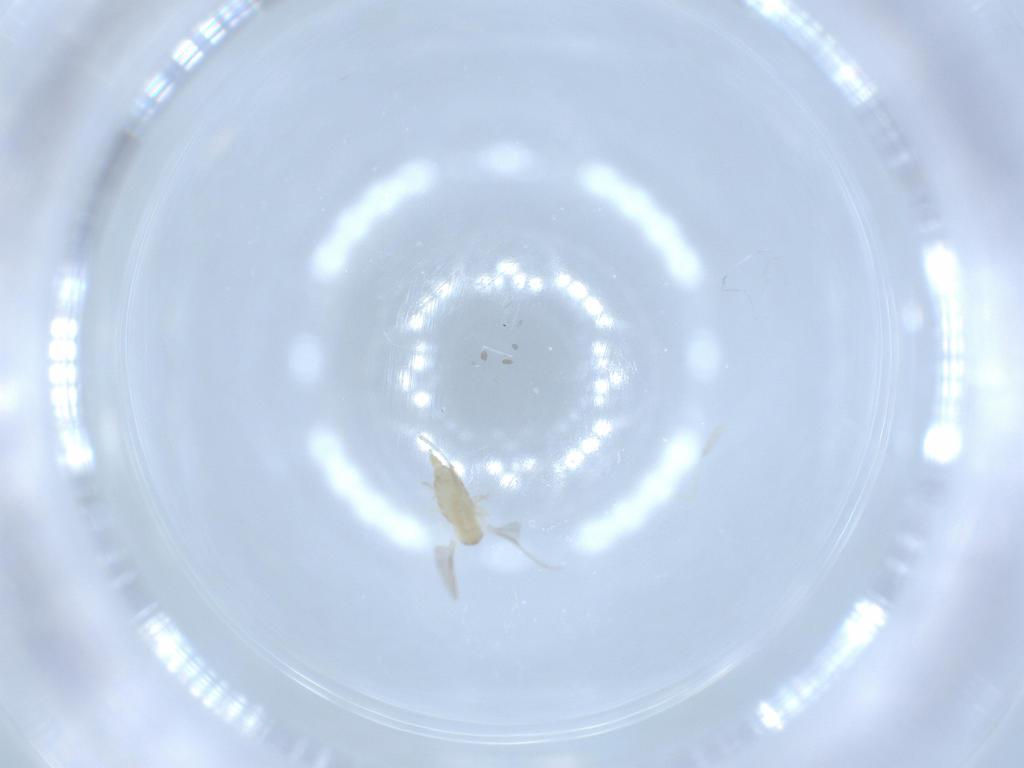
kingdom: Animalia
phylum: Arthropoda
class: Insecta
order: Diptera
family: Cecidomyiidae
